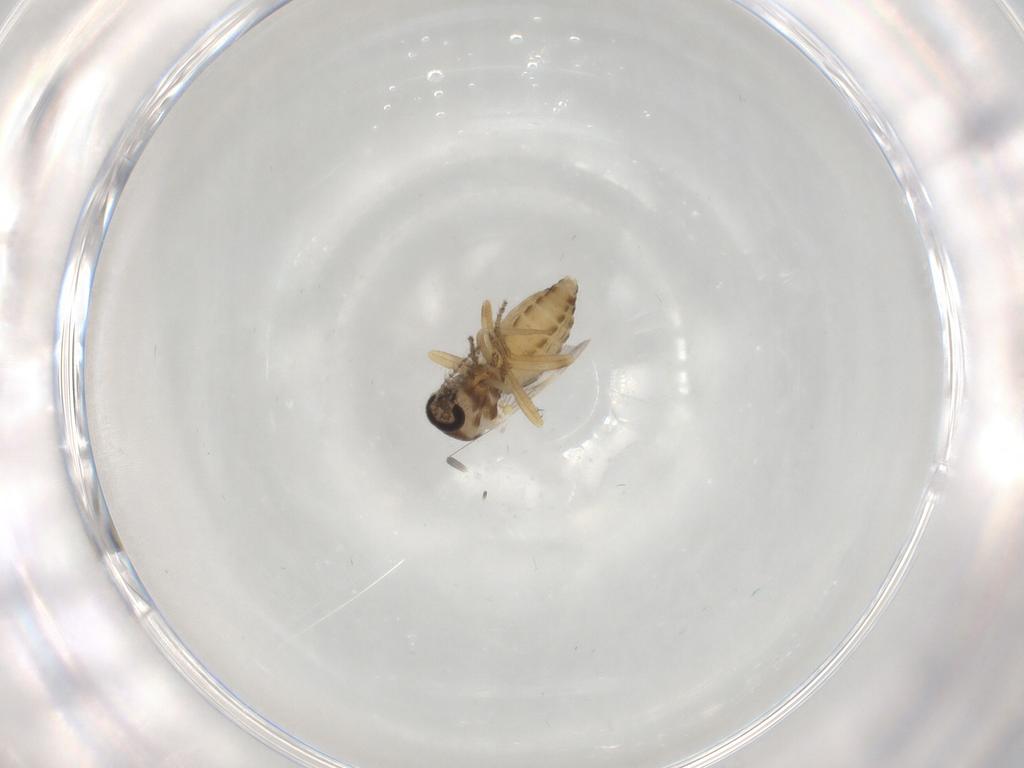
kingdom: Animalia
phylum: Arthropoda
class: Insecta
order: Diptera
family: Ceratopogonidae
